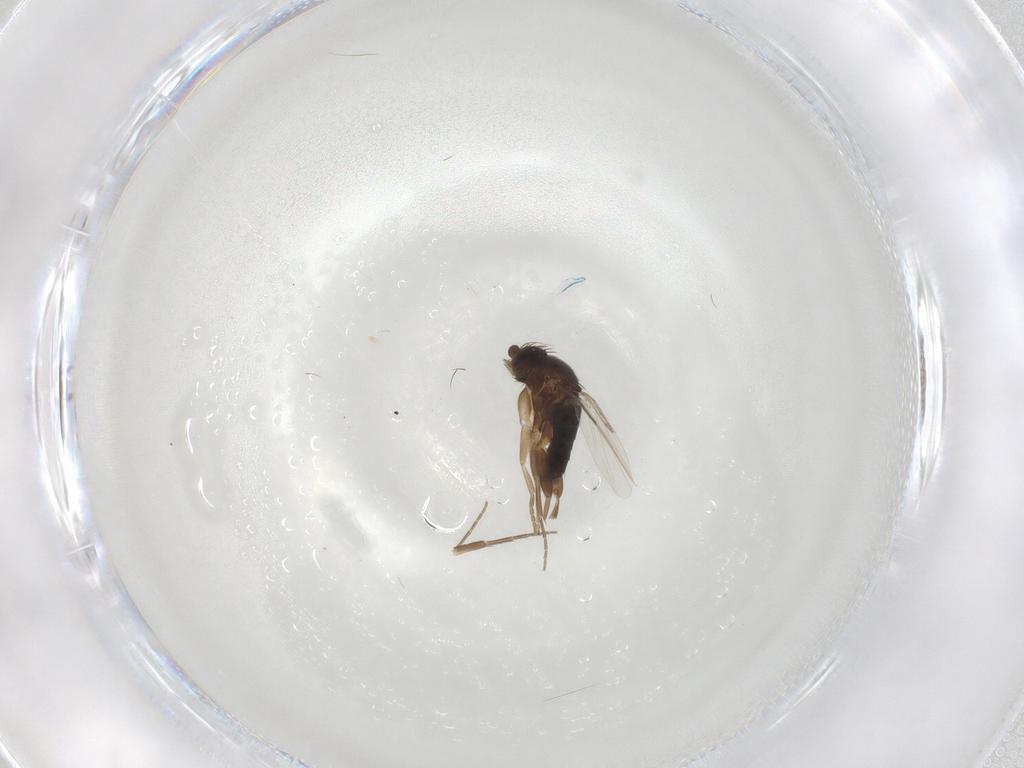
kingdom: Animalia
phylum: Arthropoda
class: Insecta
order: Diptera
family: Phoridae
